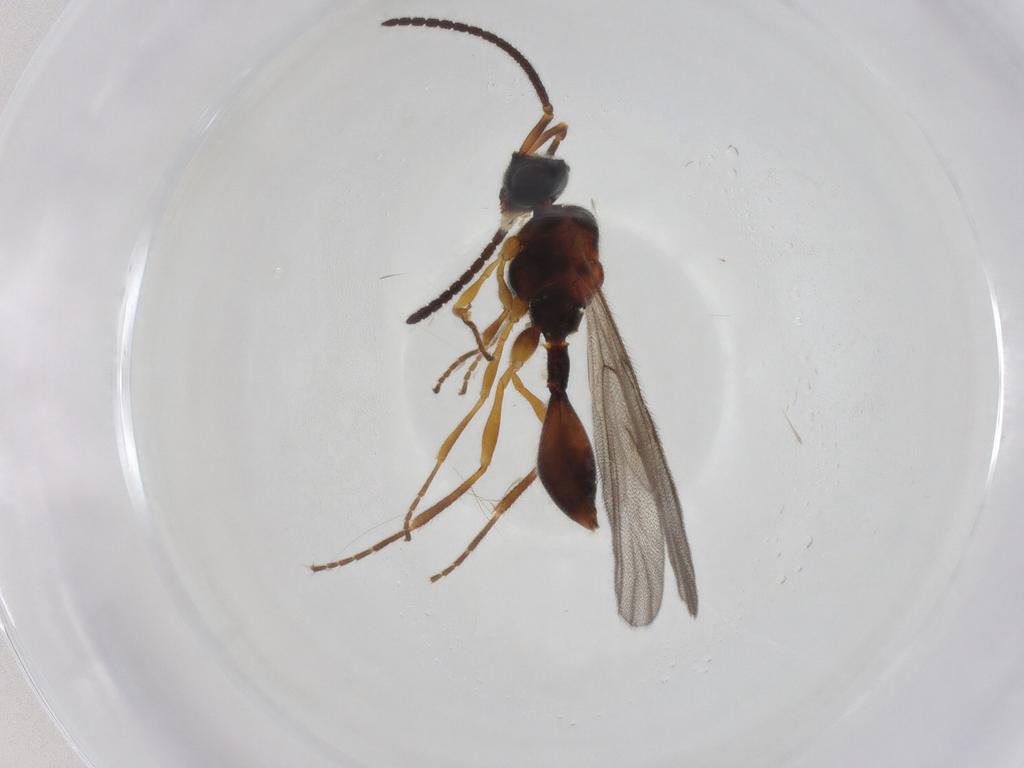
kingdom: Animalia
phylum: Arthropoda
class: Insecta
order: Hymenoptera
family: Diapriidae
